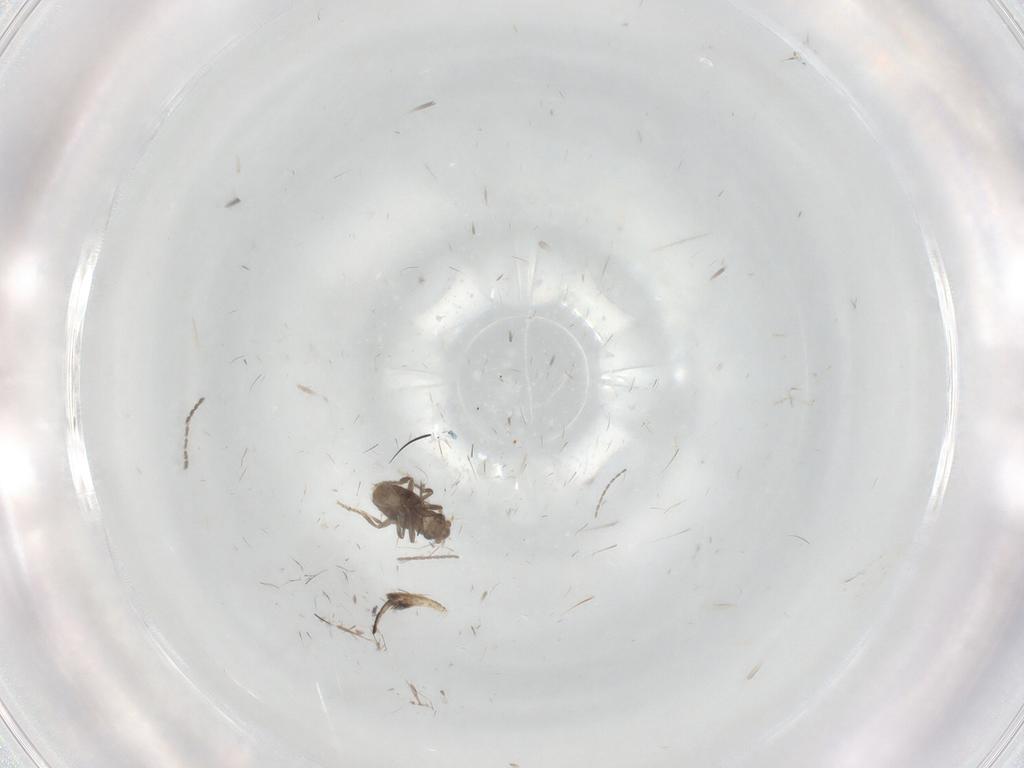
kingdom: Animalia
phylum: Arthropoda
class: Insecta
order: Diptera
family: Ceratopogonidae
